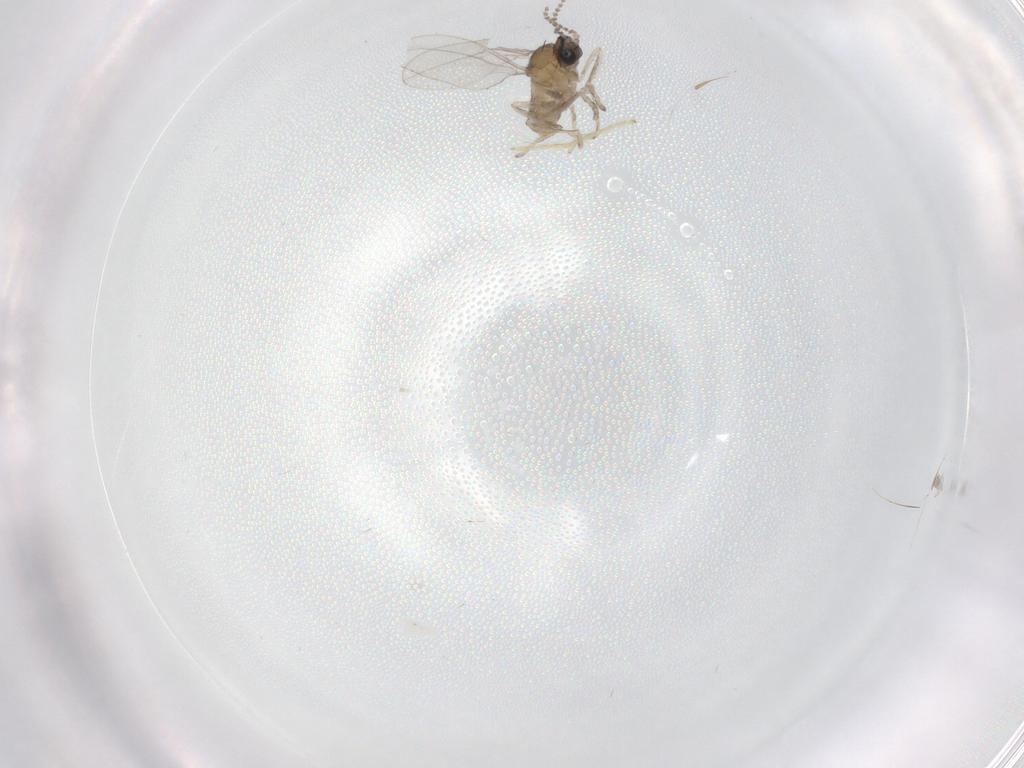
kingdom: Animalia
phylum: Arthropoda
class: Insecta
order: Diptera
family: Cecidomyiidae
